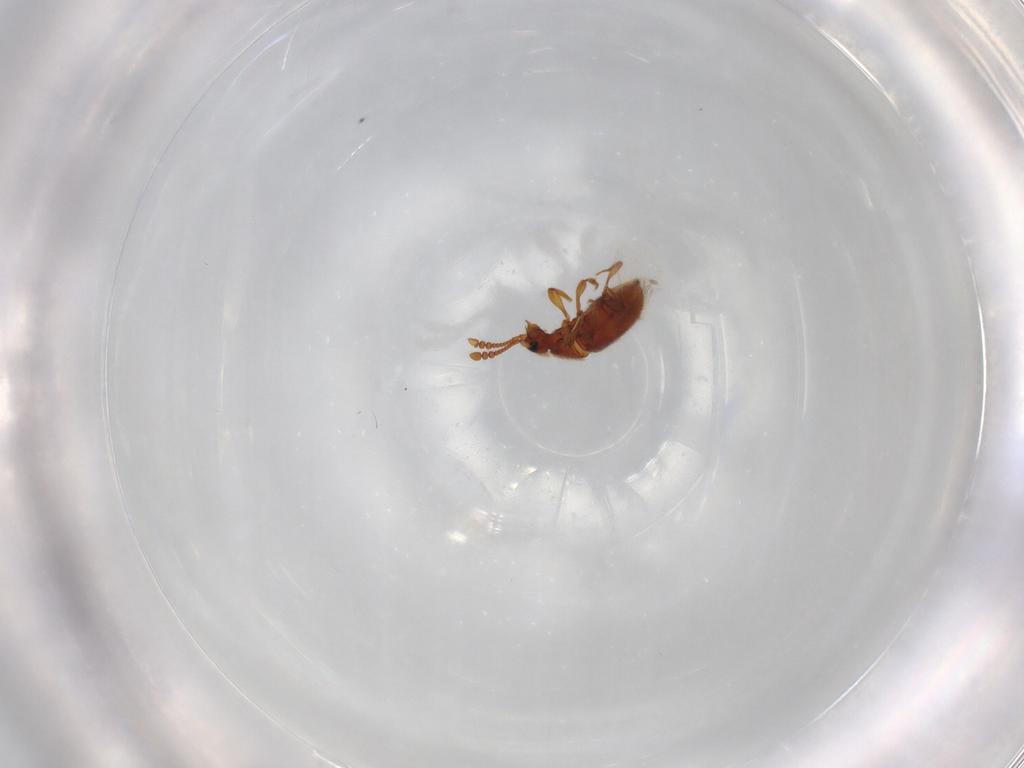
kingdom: Animalia
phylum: Arthropoda
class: Insecta
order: Coleoptera
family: Staphylinidae
